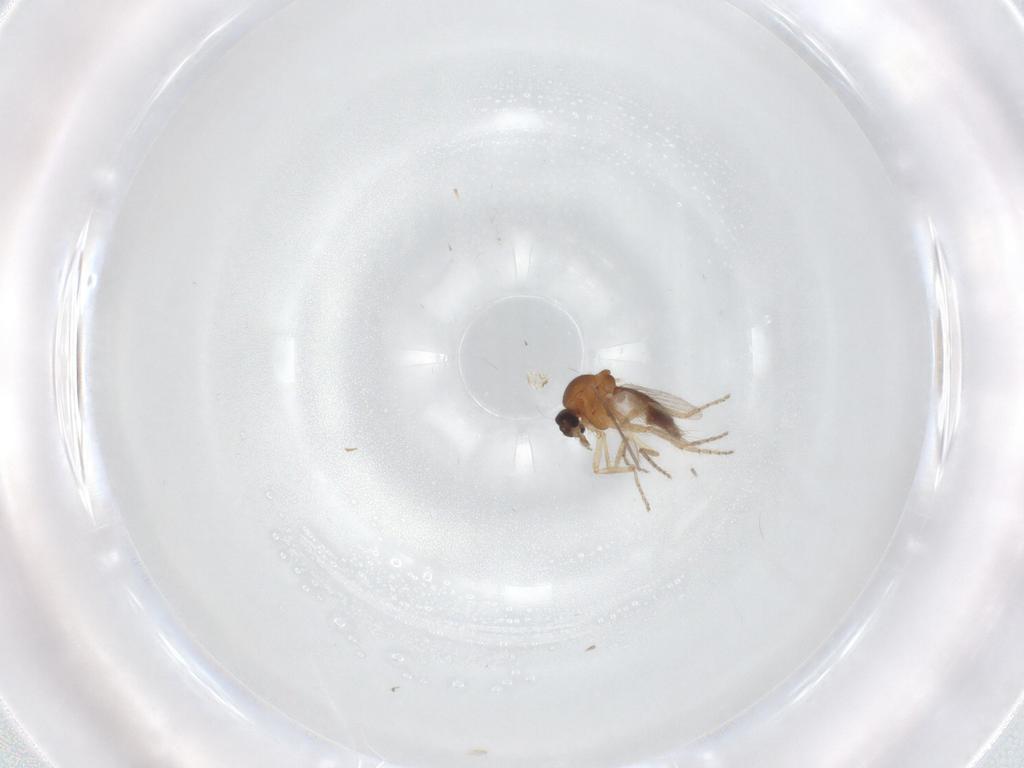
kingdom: Animalia
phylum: Arthropoda
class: Insecta
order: Diptera
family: Ceratopogonidae
